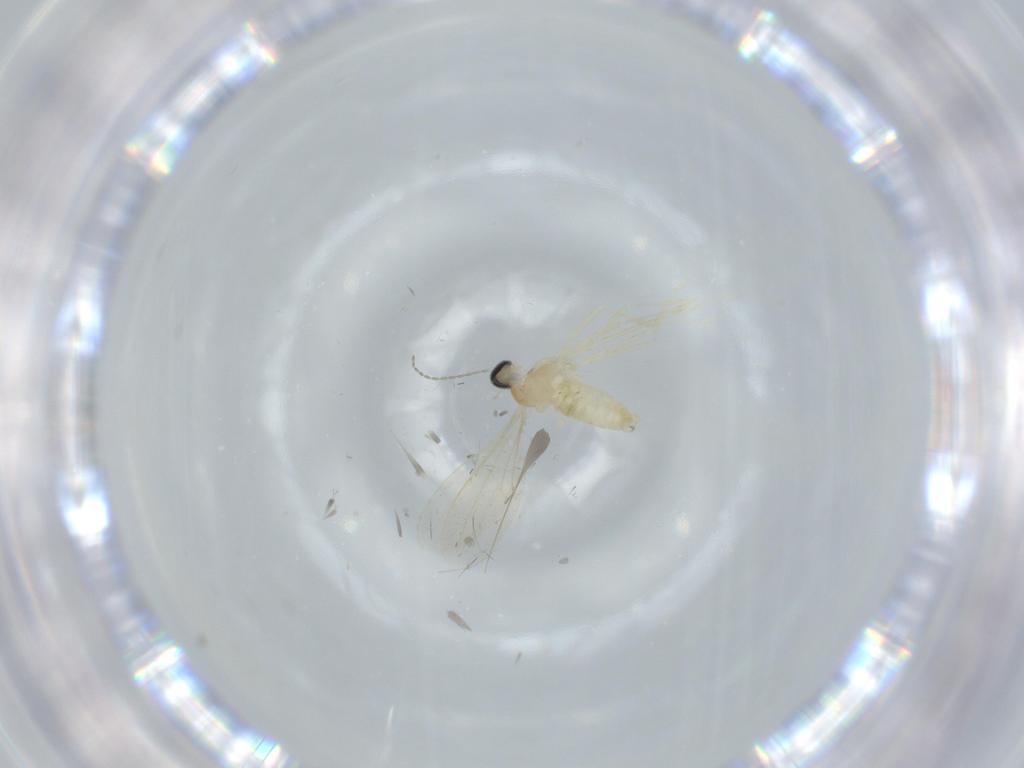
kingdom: Animalia
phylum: Arthropoda
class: Insecta
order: Diptera
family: Cecidomyiidae
